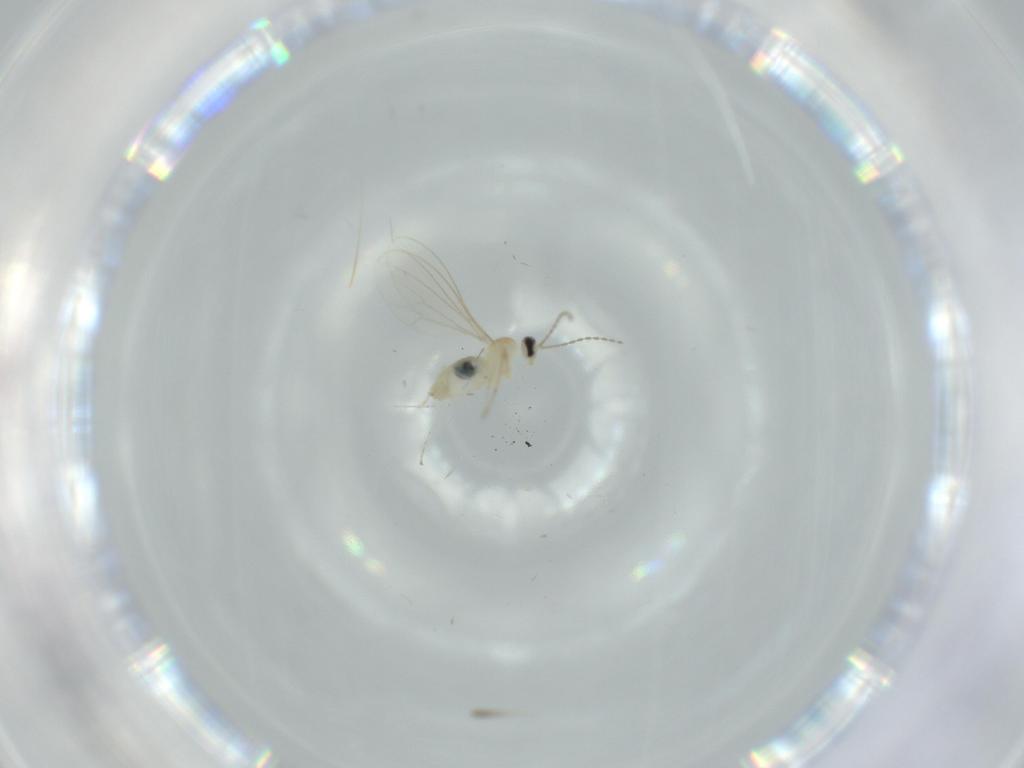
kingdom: Animalia
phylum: Arthropoda
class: Insecta
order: Diptera
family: Cecidomyiidae
